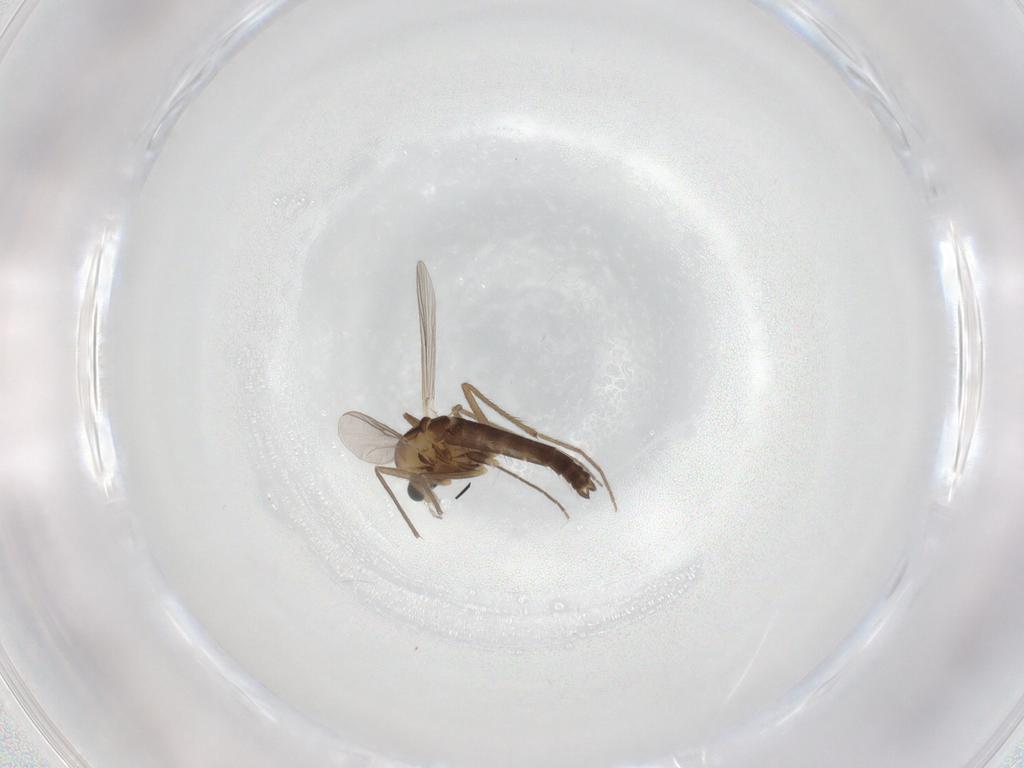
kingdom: Animalia
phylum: Arthropoda
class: Insecta
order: Diptera
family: Chironomidae
